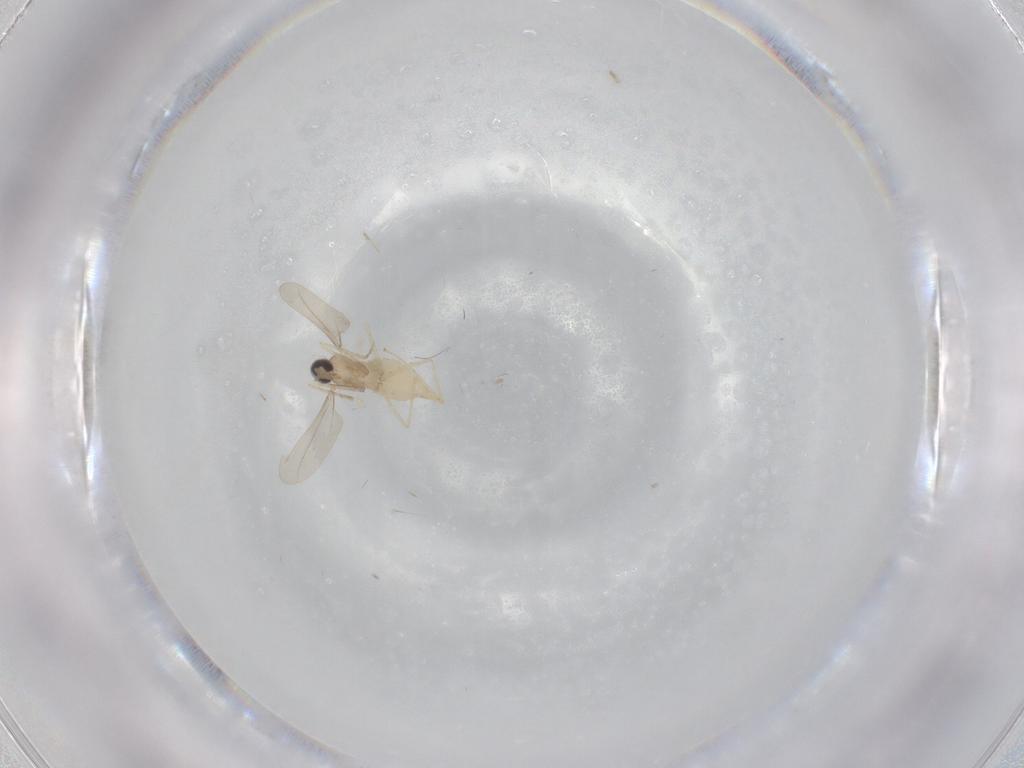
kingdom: Animalia
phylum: Arthropoda
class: Insecta
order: Diptera
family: Cecidomyiidae
